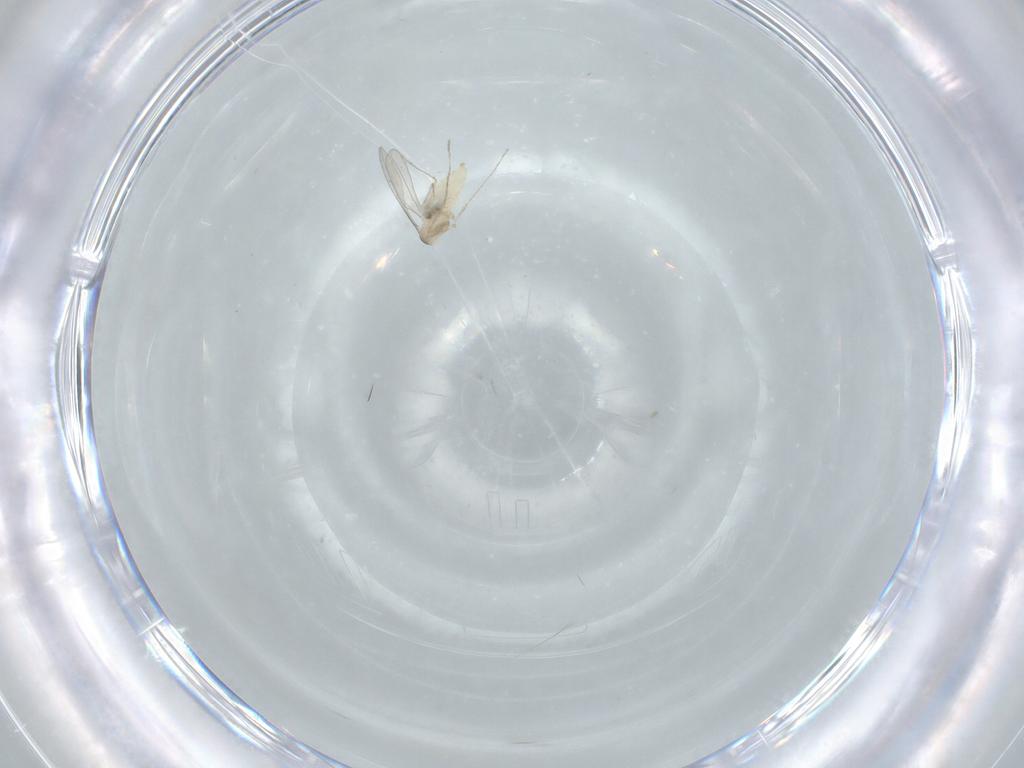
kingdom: Animalia
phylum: Arthropoda
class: Insecta
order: Diptera
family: Cecidomyiidae
